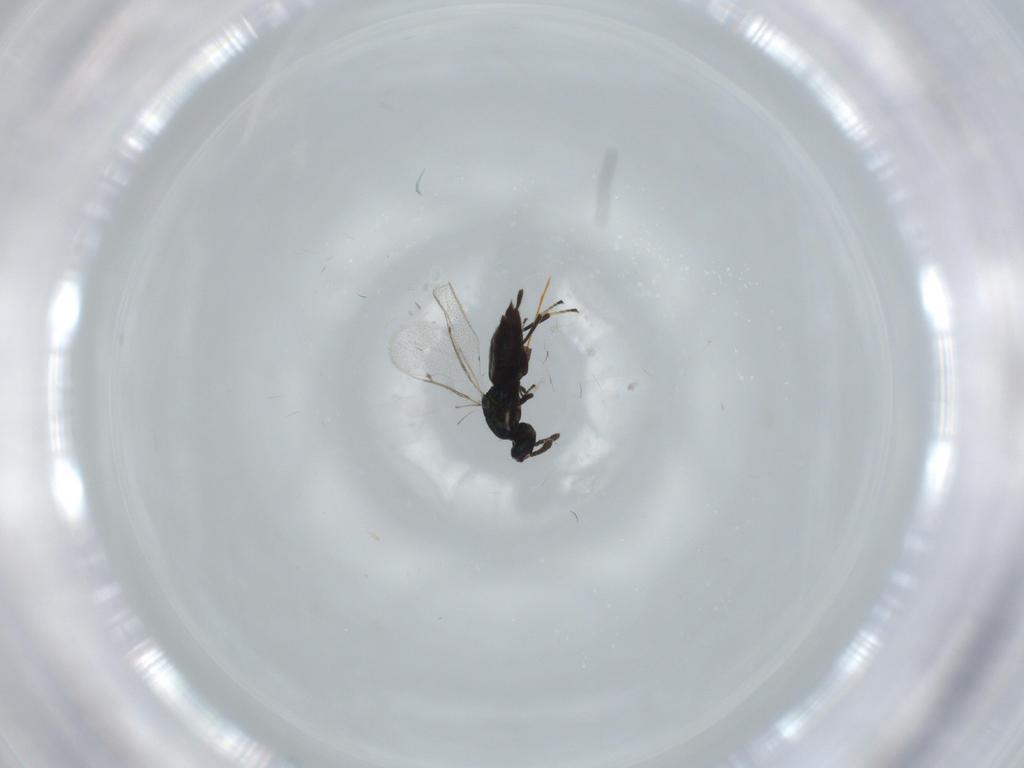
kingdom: Animalia
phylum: Arthropoda
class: Insecta
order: Hymenoptera
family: Eulophidae
